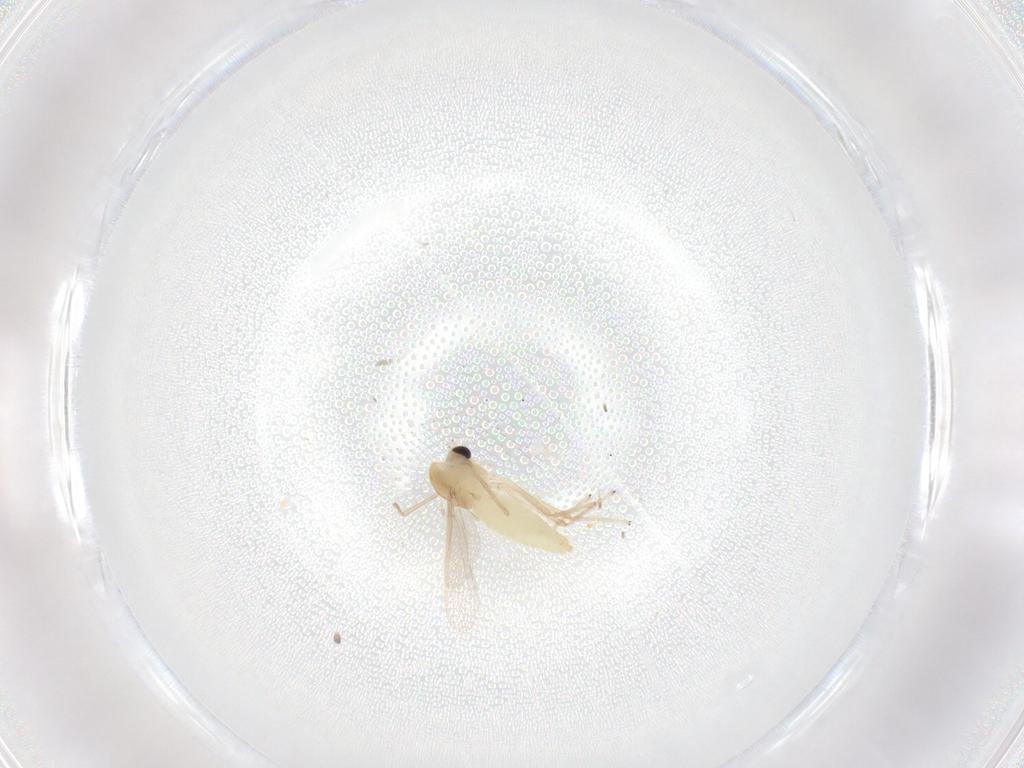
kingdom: Animalia
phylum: Arthropoda
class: Insecta
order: Diptera
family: Chironomidae
